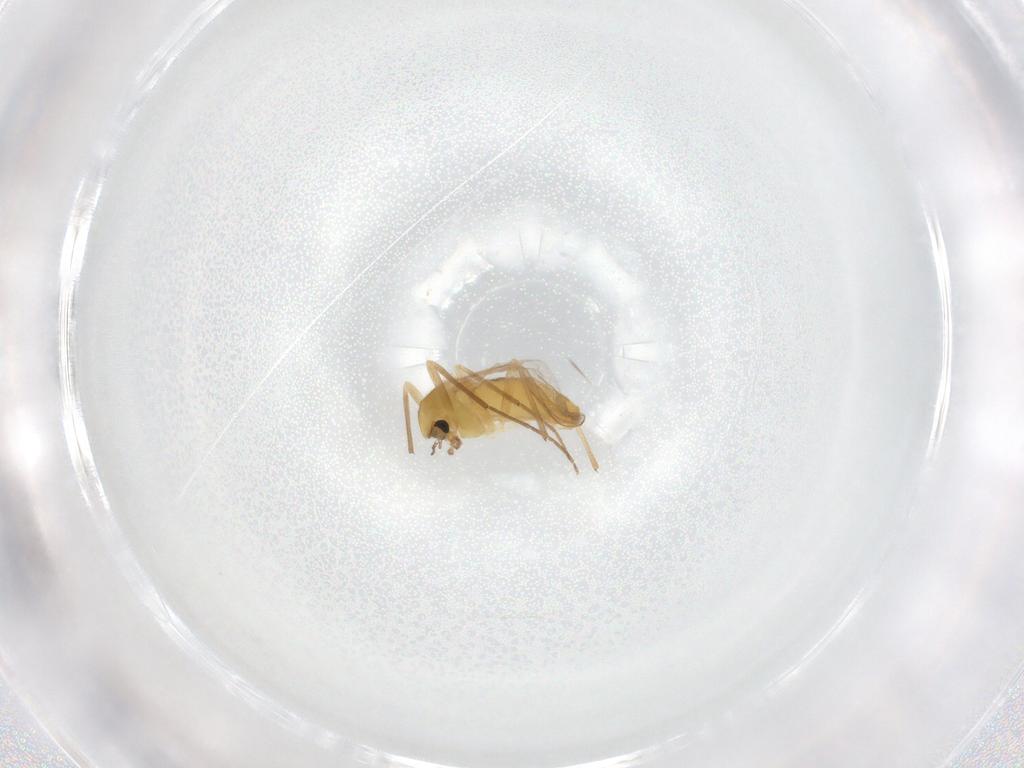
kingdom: Animalia
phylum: Arthropoda
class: Insecta
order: Diptera
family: Chironomidae
